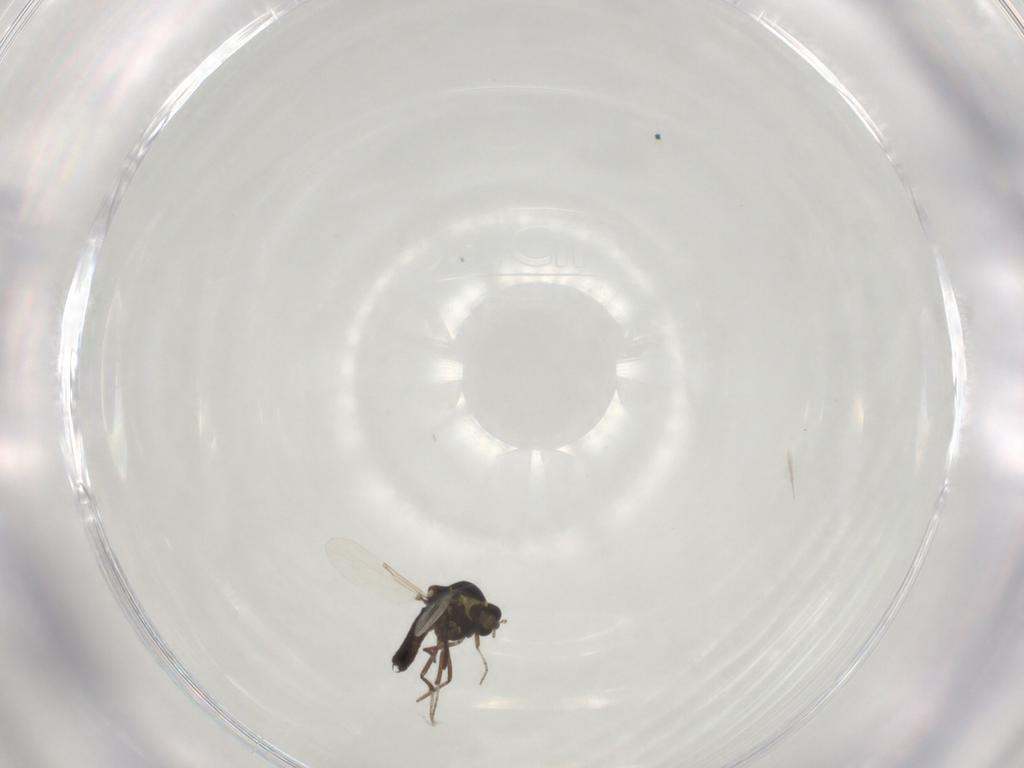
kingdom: Animalia
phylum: Arthropoda
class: Insecta
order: Diptera
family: Ceratopogonidae
